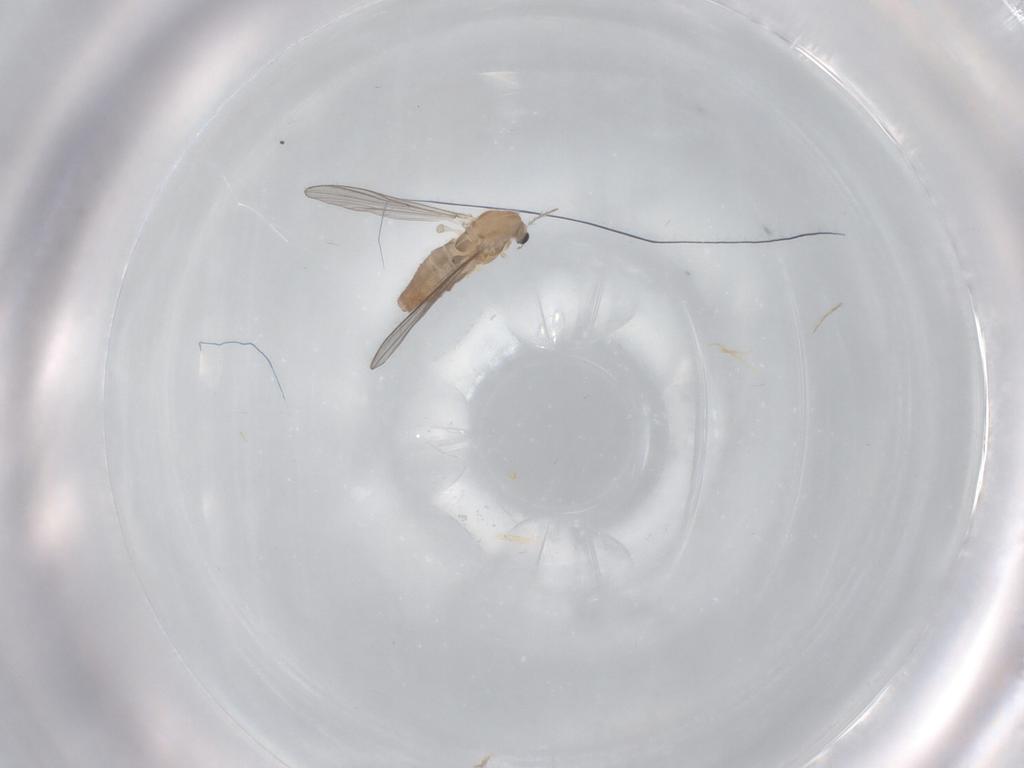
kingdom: Animalia
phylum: Arthropoda
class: Insecta
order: Diptera
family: Chironomidae
